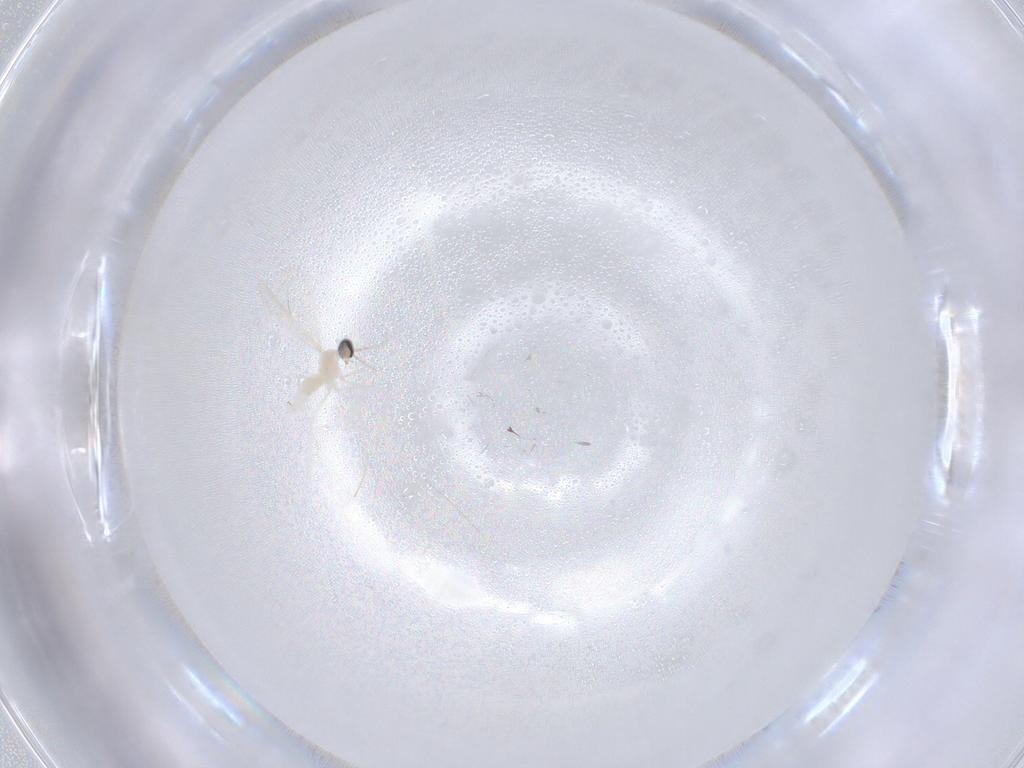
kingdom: Animalia
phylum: Arthropoda
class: Insecta
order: Diptera
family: Cecidomyiidae
